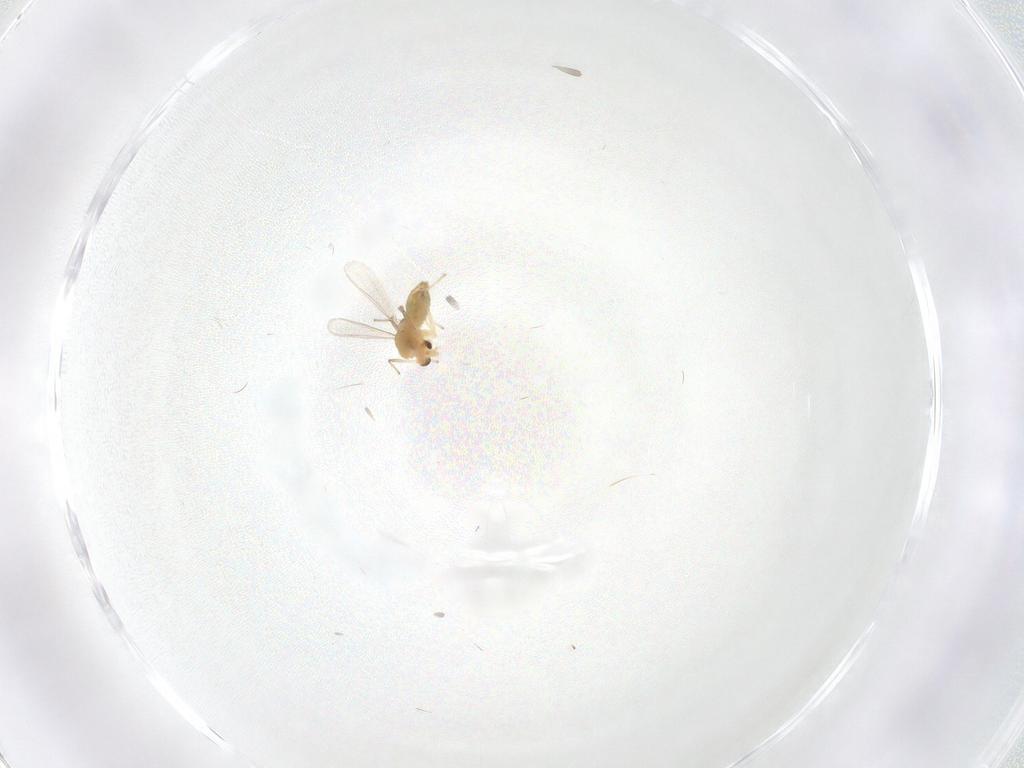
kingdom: Animalia
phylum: Arthropoda
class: Insecta
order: Diptera
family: Chironomidae
